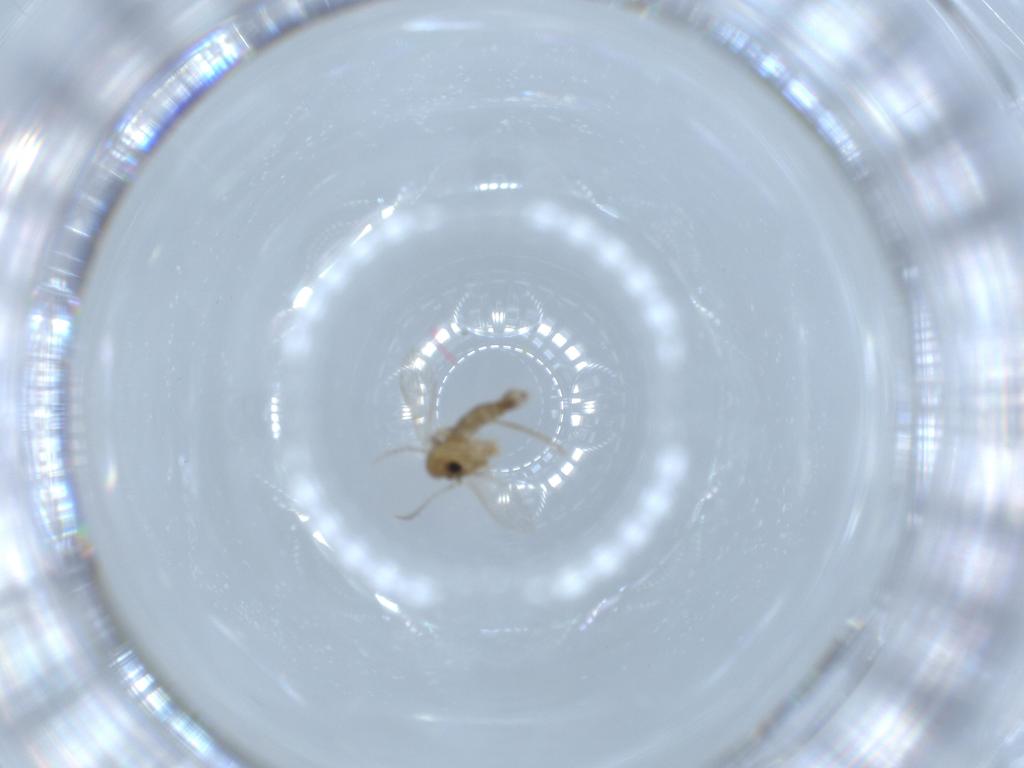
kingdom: Animalia
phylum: Arthropoda
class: Insecta
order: Diptera
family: Psychodidae
